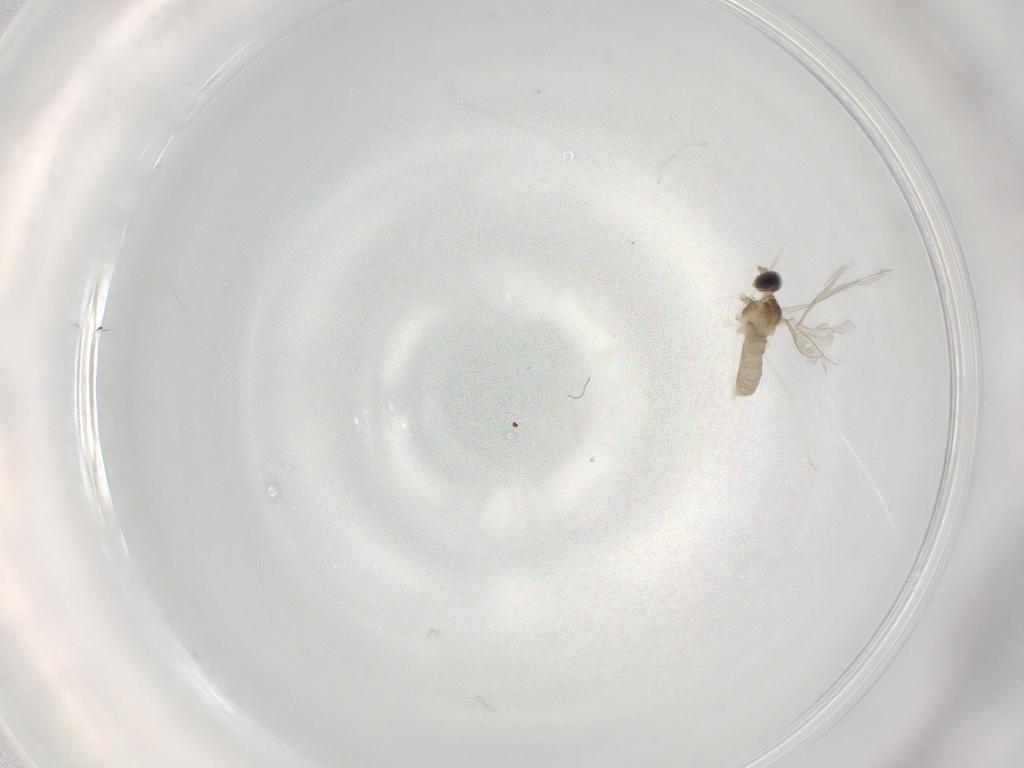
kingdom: Animalia
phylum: Arthropoda
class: Insecta
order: Diptera
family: Cecidomyiidae
